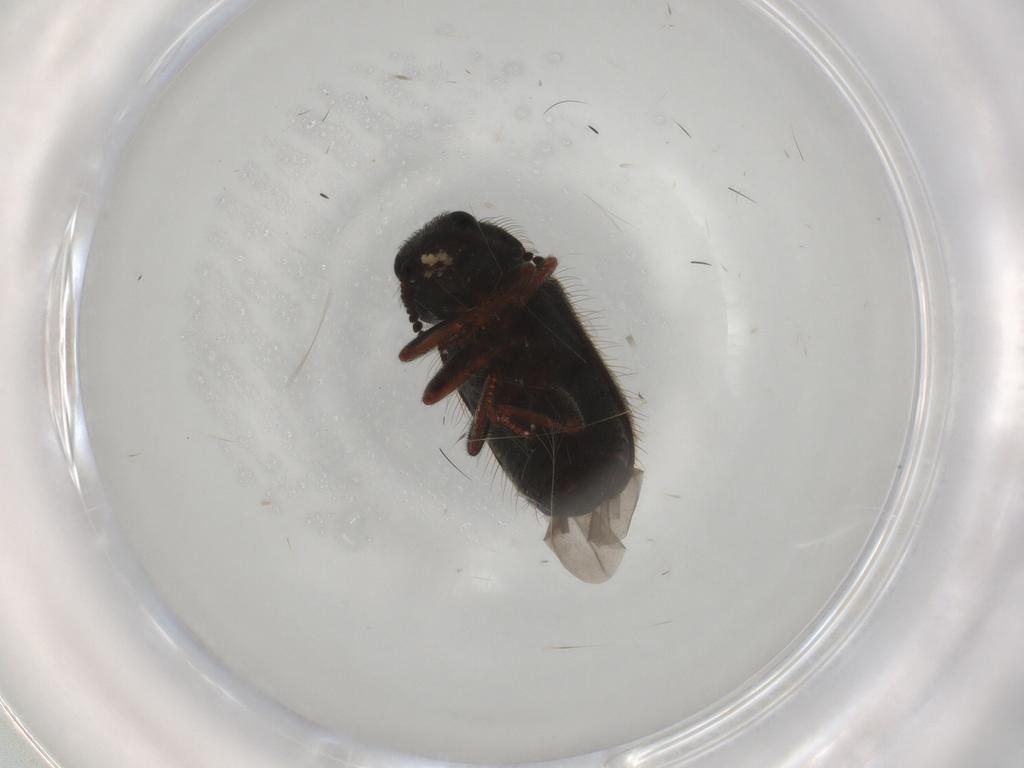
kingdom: Animalia
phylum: Arthropoda
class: Insecta
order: Coleoptera
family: Melyridae
